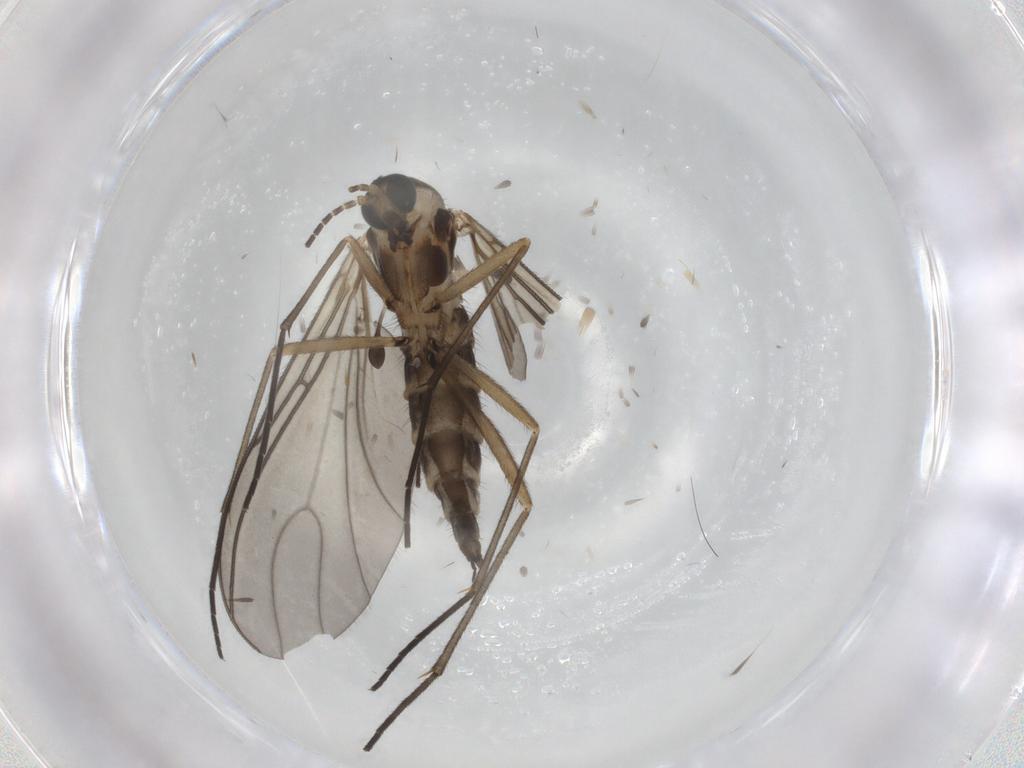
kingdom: Animalia
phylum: Arthropoda
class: Insecta
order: Diptera
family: Sciaridae
